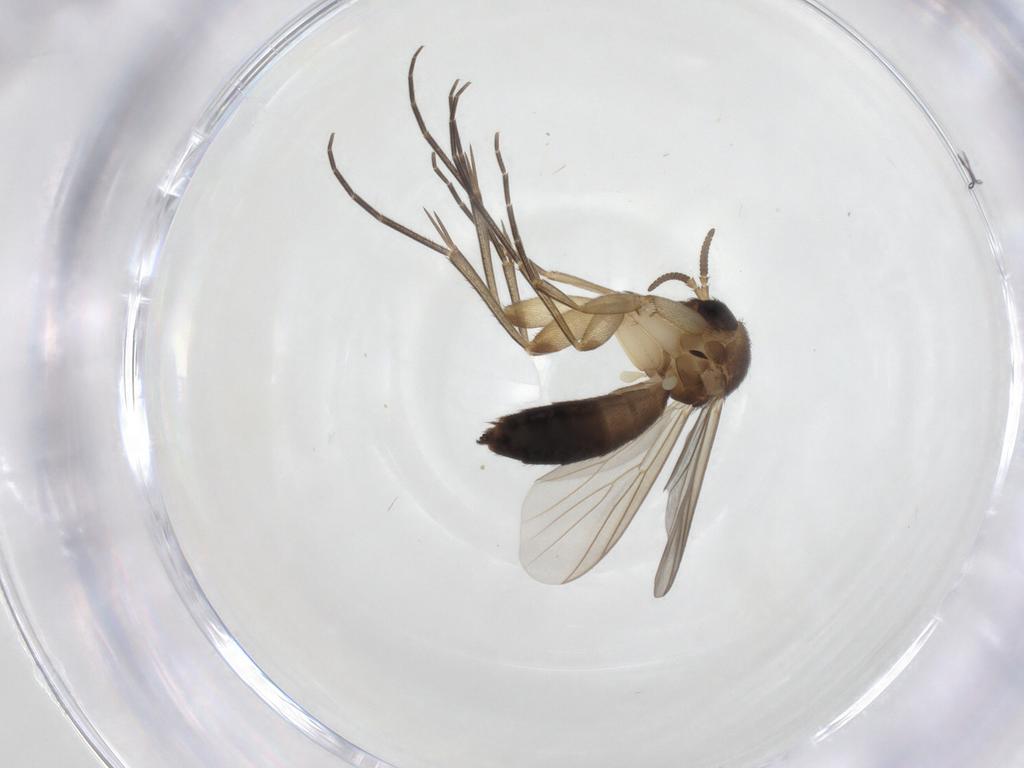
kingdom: Animalia
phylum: Arthropoda
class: Insecta
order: Diptera
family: Mycetophilidae
